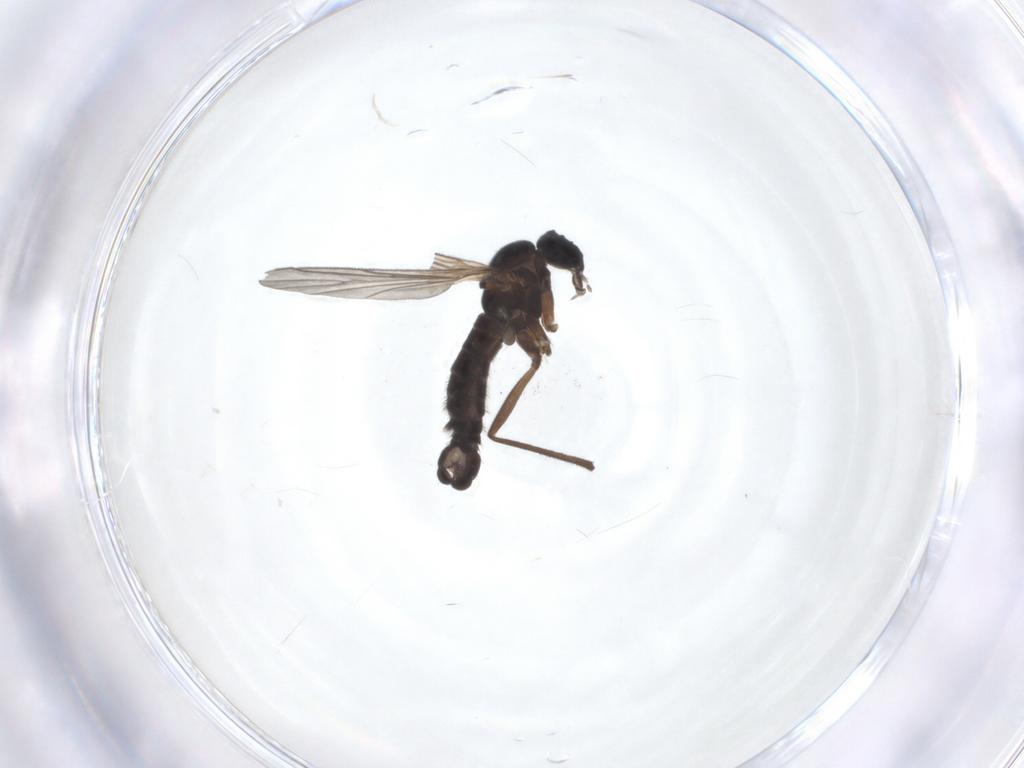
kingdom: Animalia
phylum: Arthropoda
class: Insecta
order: Diptera
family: Chironomidae
